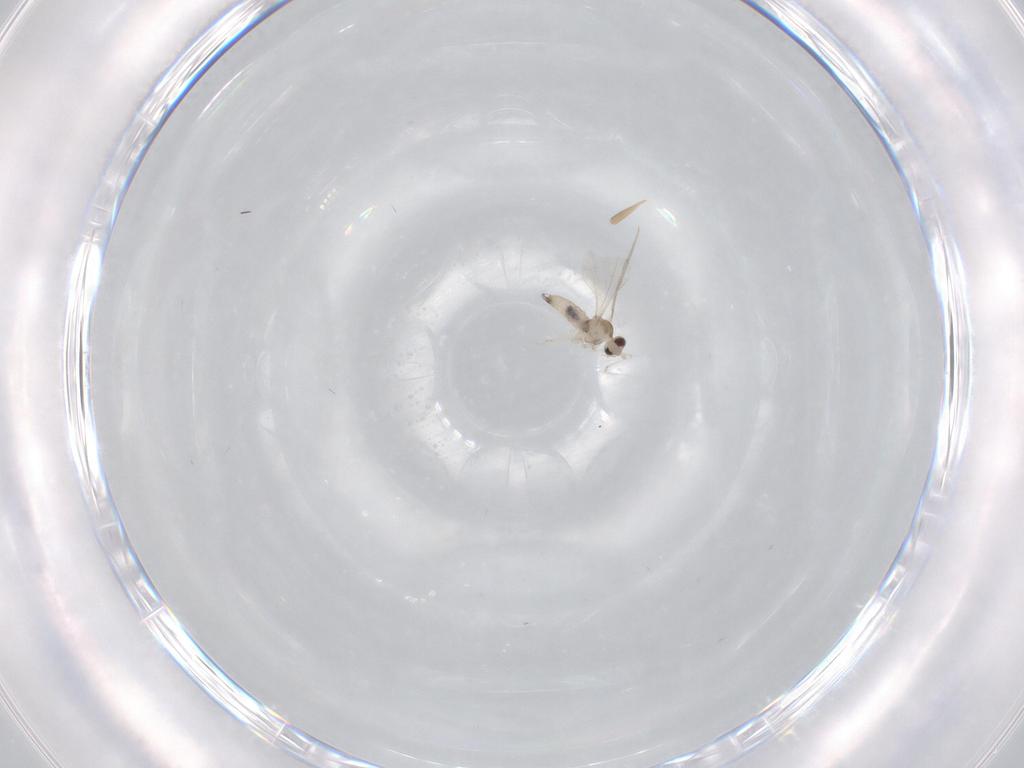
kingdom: Animalia
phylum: Arthropoda
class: Insecta
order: Diptera
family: Cecidomyiidae
